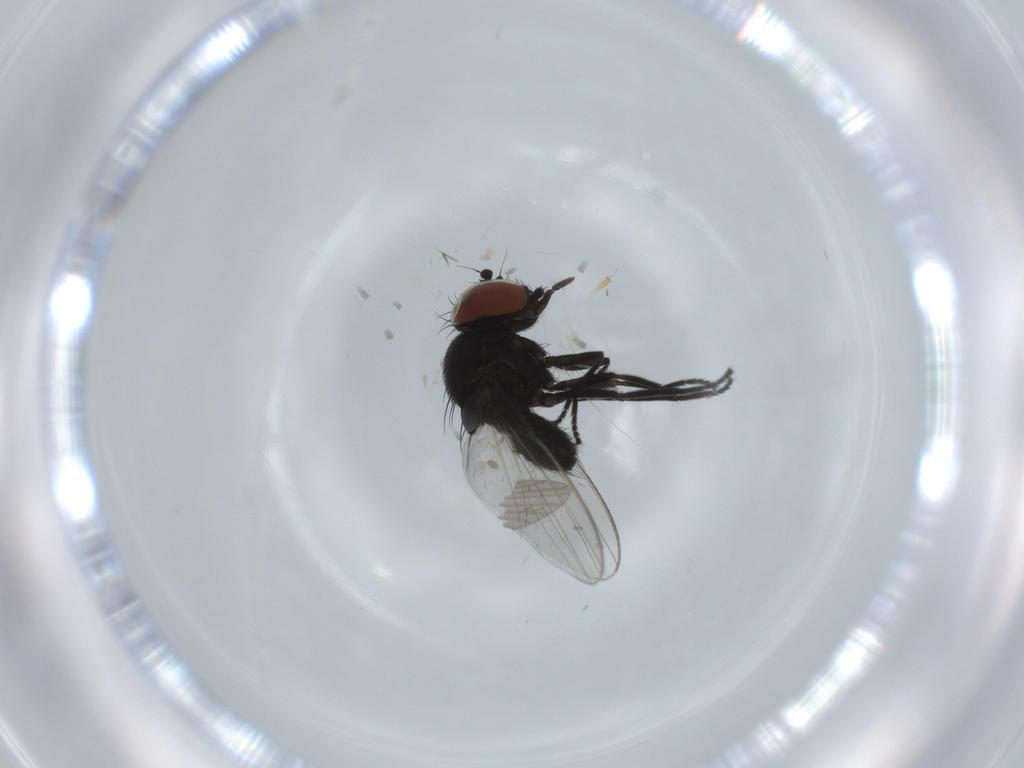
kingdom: Animalia
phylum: Arthropoda
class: Insecta
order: Diptera
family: Milichiidae
